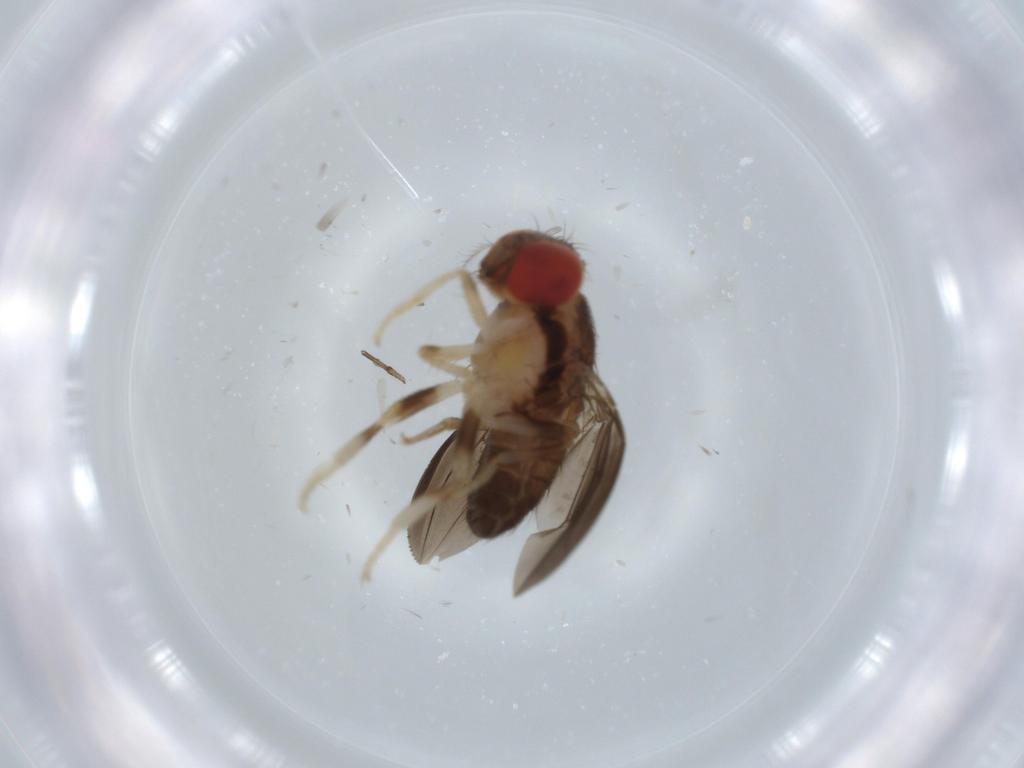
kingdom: Animalia
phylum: Arthropoda
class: Insecta
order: Diptera
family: Drosophilidae
